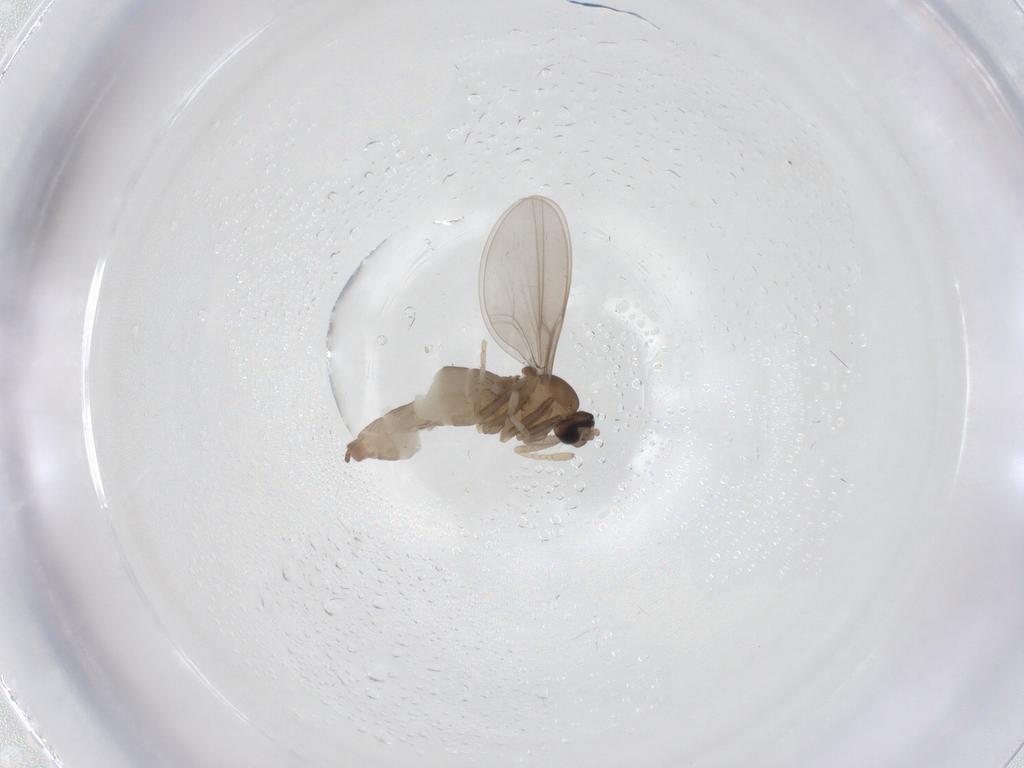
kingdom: Animalia
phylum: Arthropoda
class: Insecta
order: Diptera
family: Cecidomyiidae
